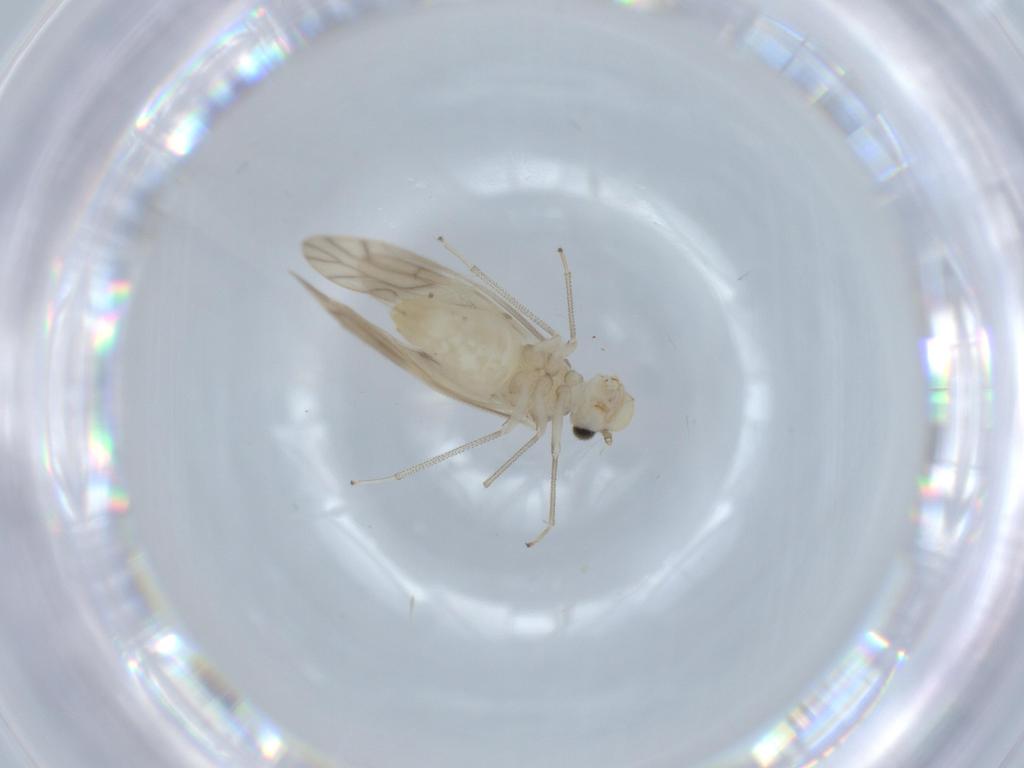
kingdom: Animalia
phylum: Arthropoda
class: Insecta
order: Psocodea
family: Caeciliusidae
